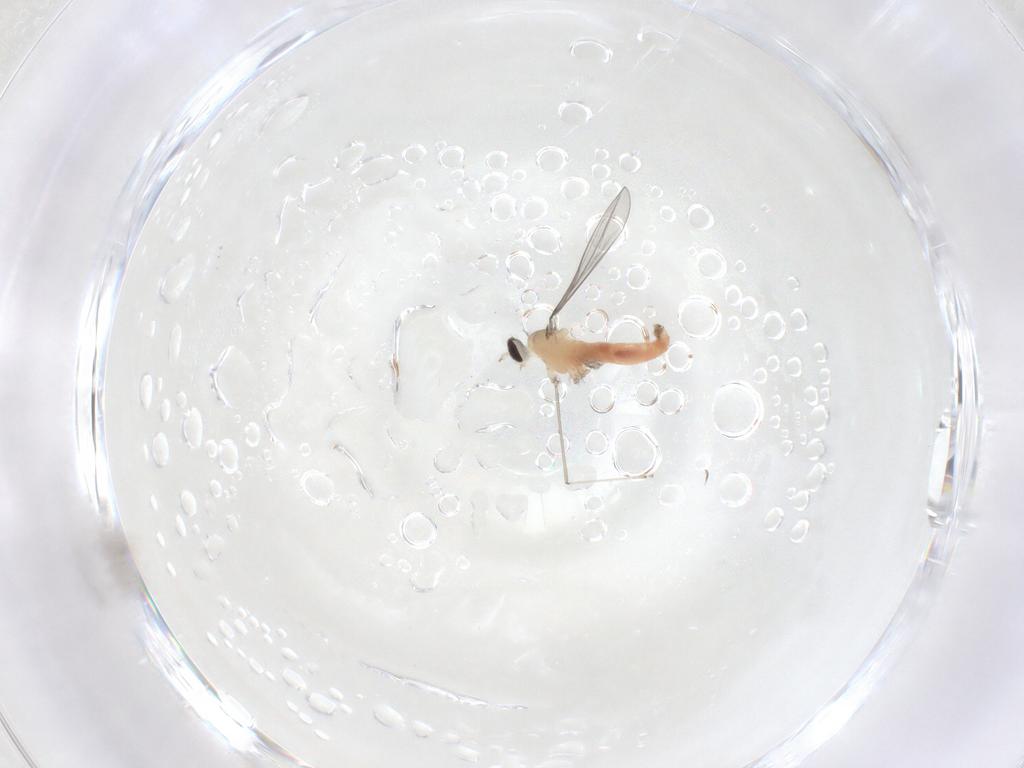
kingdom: Animalia
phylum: Arthropoda
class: Insecta
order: Diptera
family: Cecidomyiidae
